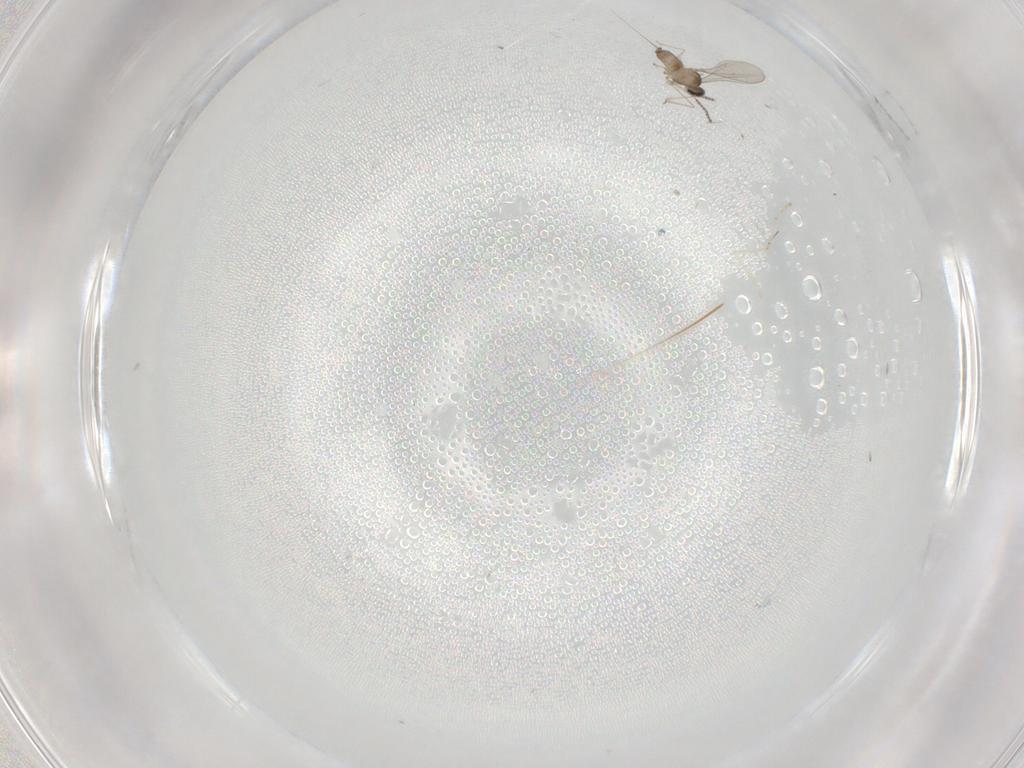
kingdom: Animalia
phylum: Arthropoda
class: Insecta
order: Diptera
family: Cecidomyiidae
